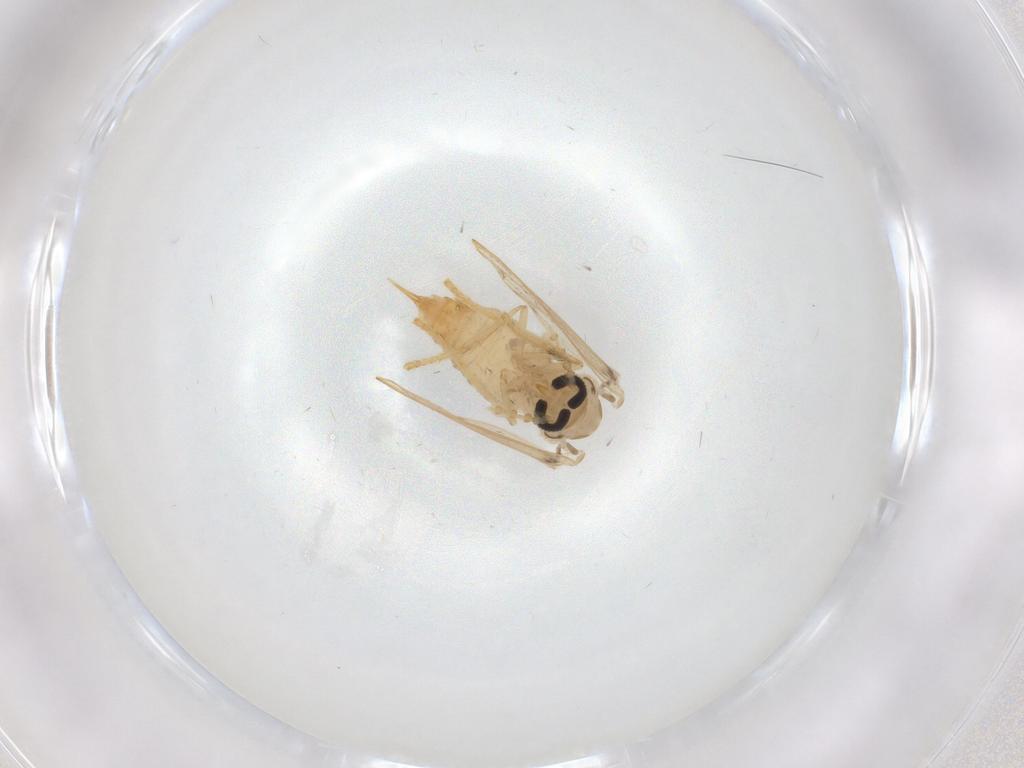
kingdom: Animalia
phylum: Arthropoda
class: Insecta
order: Diptera
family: Psychodidae
